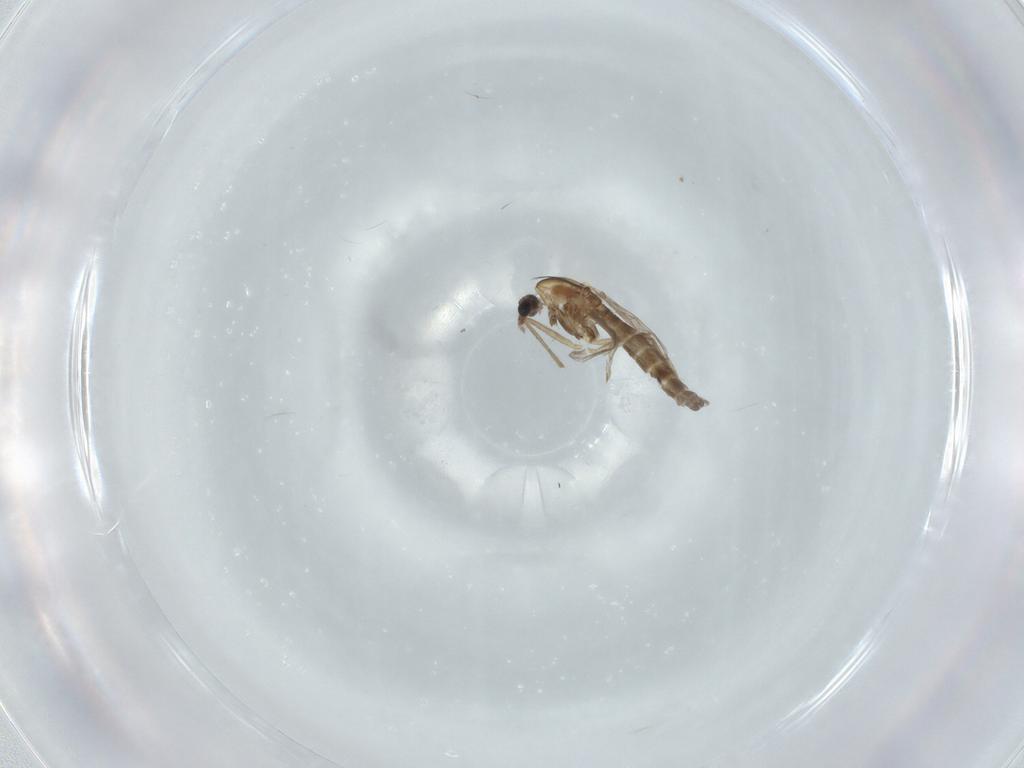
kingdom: Animalia
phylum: Arthropoda
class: Insecta
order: Diptera
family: Chironomidae
